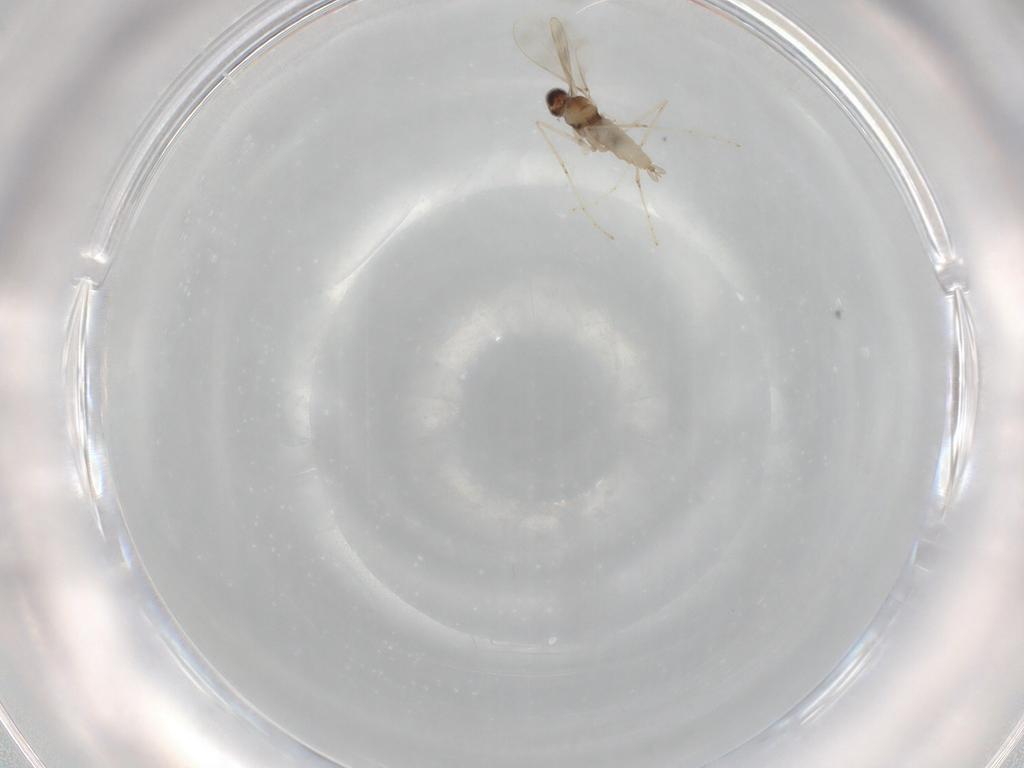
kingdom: Animalia
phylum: Arthropoda
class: Insecta
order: Diptera
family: Cecidomyiidae
